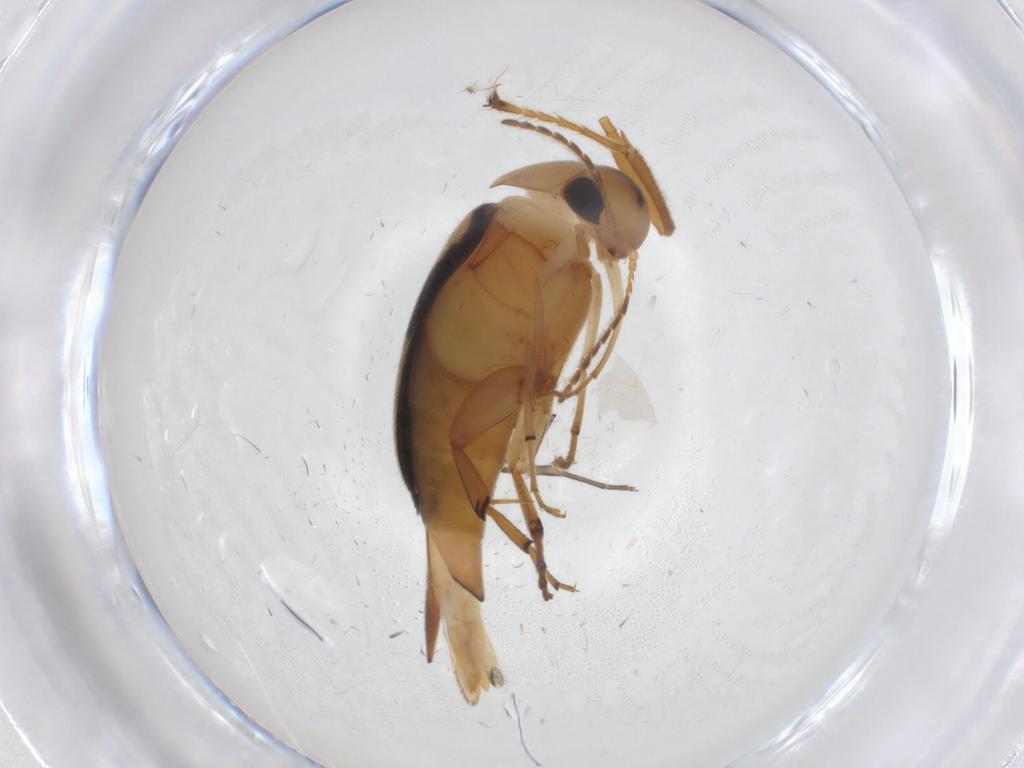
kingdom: Animalia
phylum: Arthropoda
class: Insecta
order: Coleoptera
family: Mordellidae
